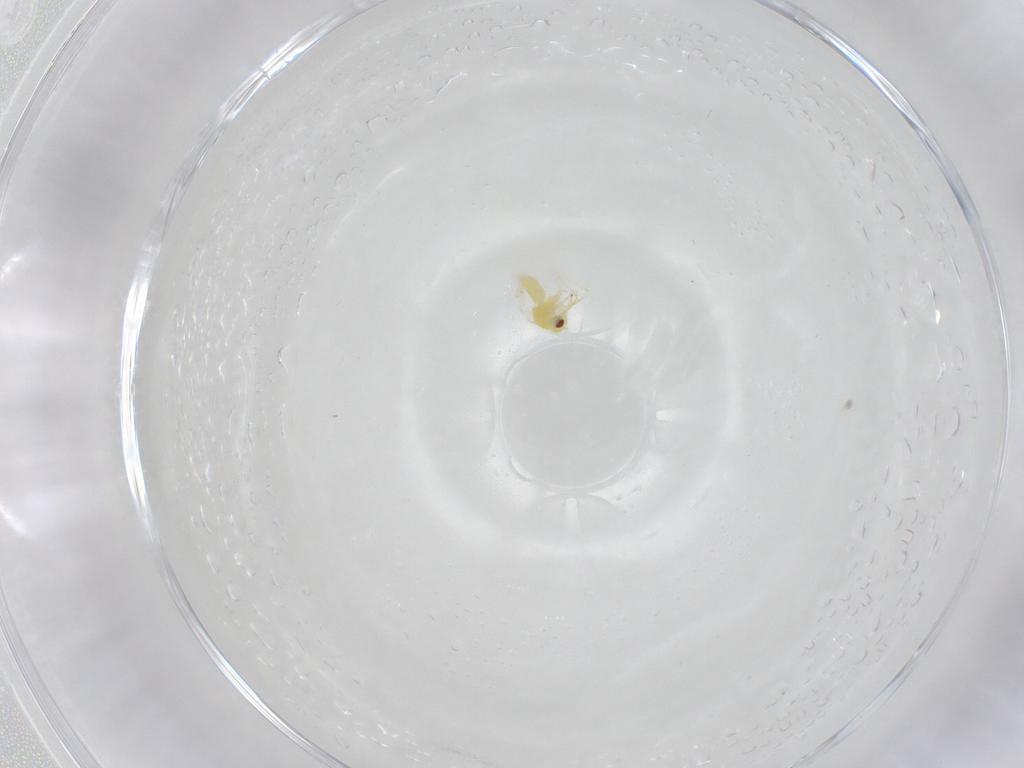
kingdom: Animalia
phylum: Arthropoda
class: Insecta
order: Hemiptera
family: Aleyrodidae
